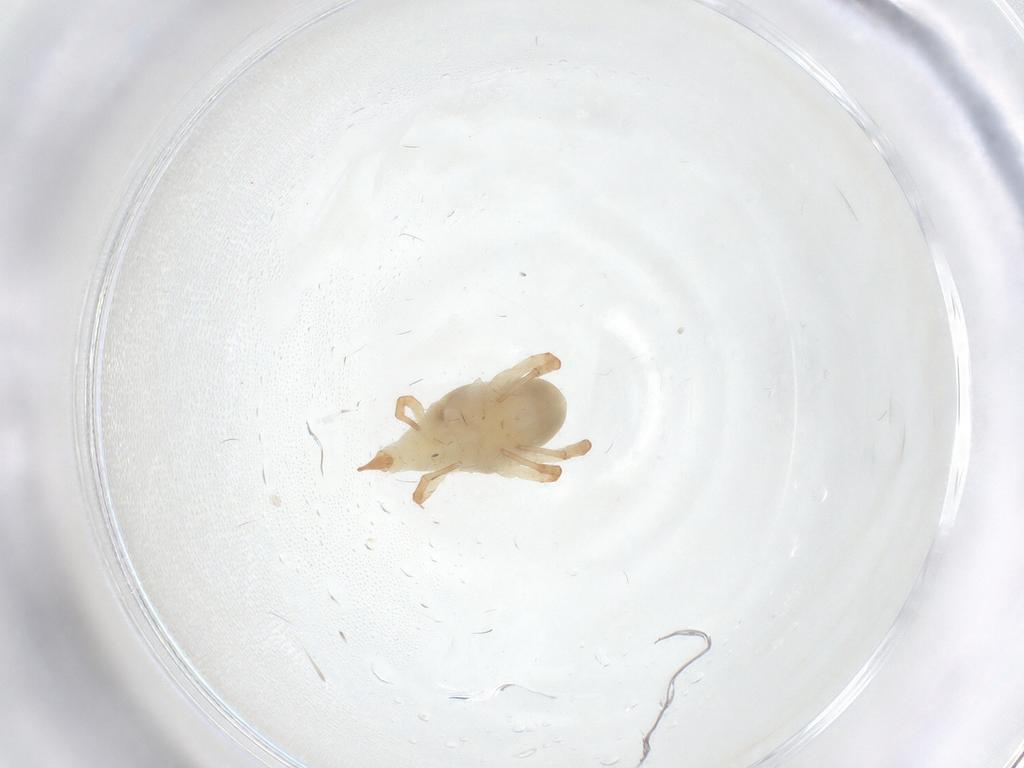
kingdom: Animalia
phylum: Arthropoda
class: Arachnida
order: Trombidiformes
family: Bdellidae
